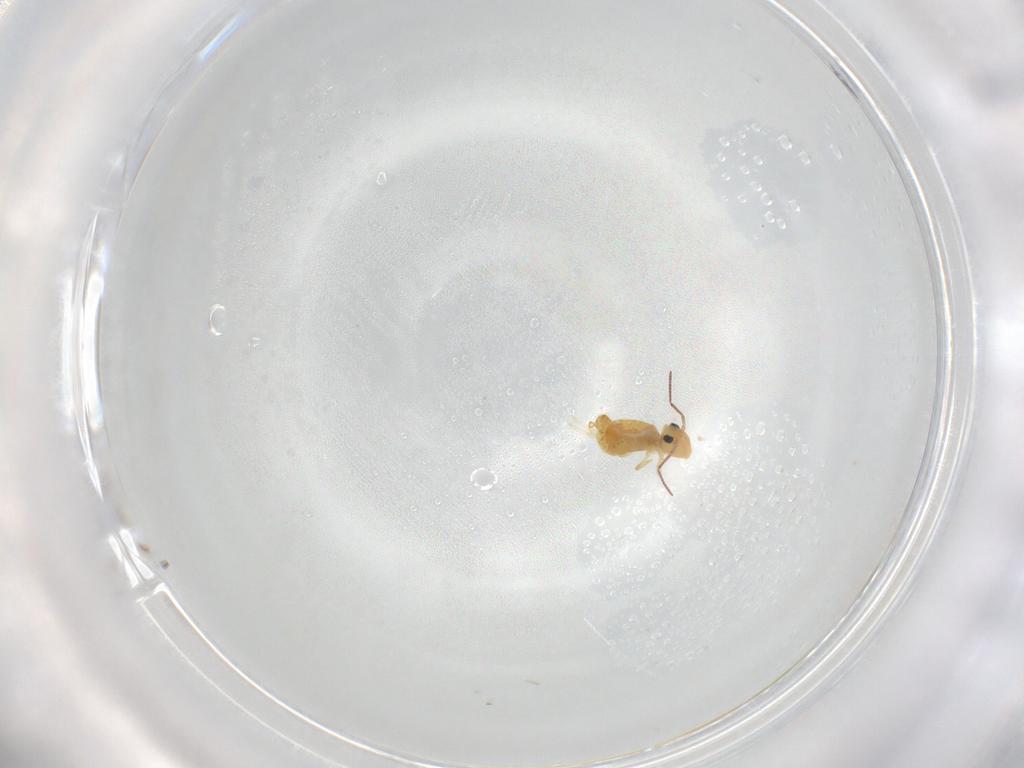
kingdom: Animalia
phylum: Arthropoda
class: Collembola
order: Symphypleona
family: Bourletiellidae
